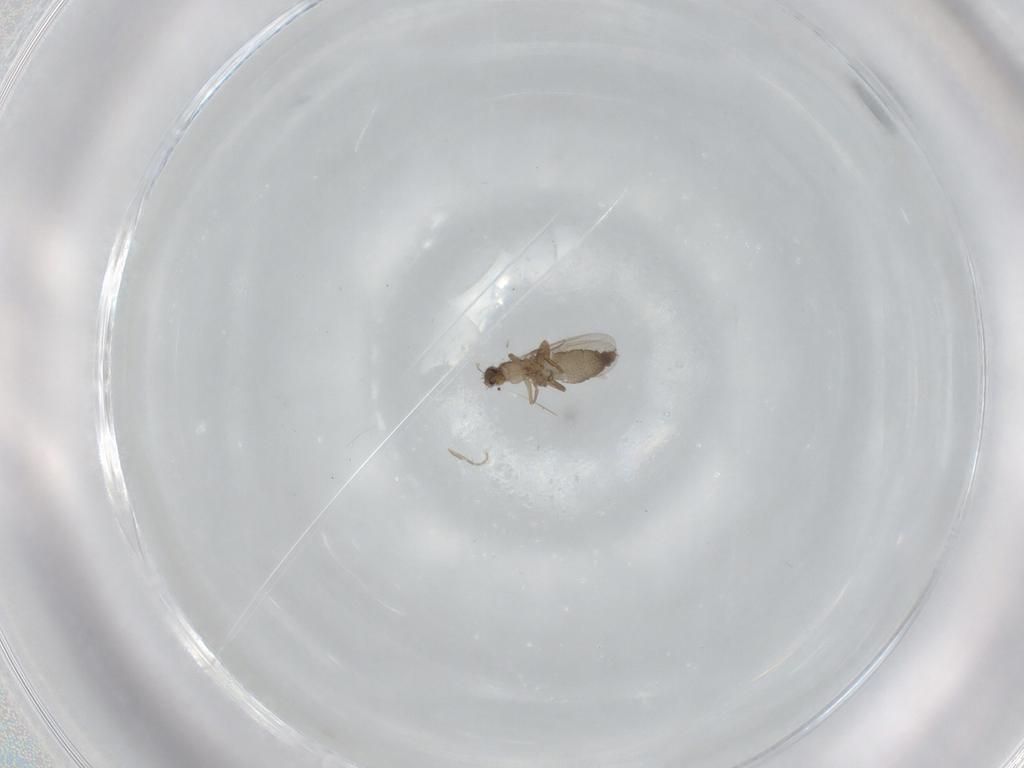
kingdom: Animalia
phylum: Arthropoda
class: Insecta
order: Diptera
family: Phoridae
